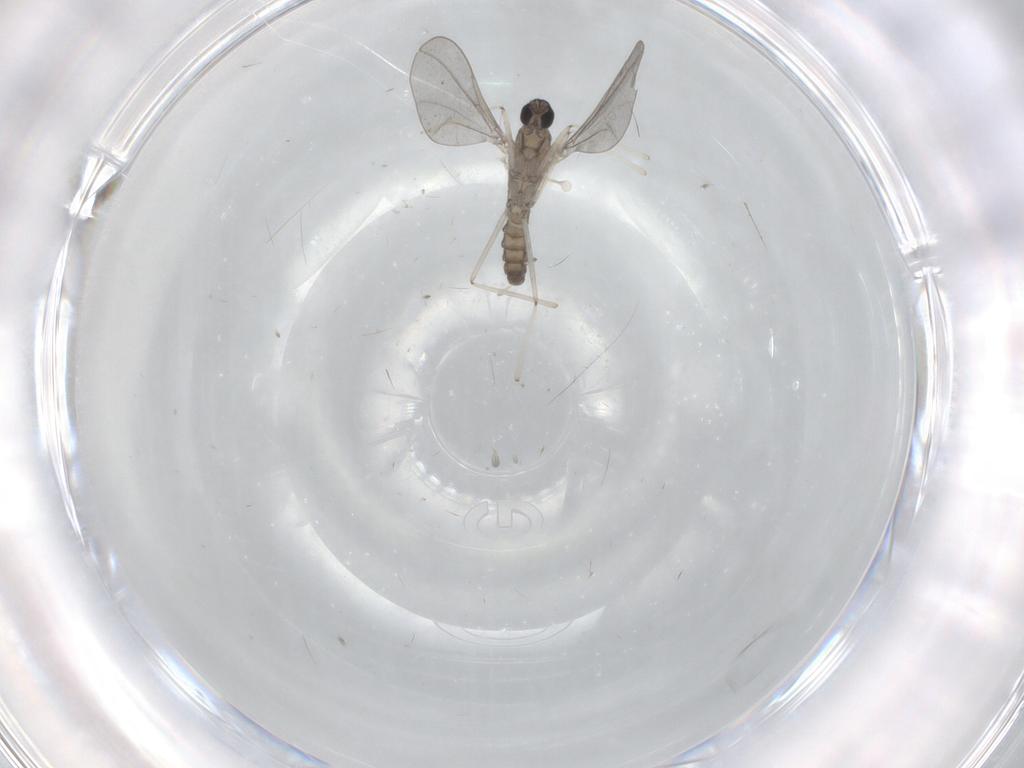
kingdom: Animalia
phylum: Arthropoda
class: Insecta
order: Diptera
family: Cecidomyiidae
